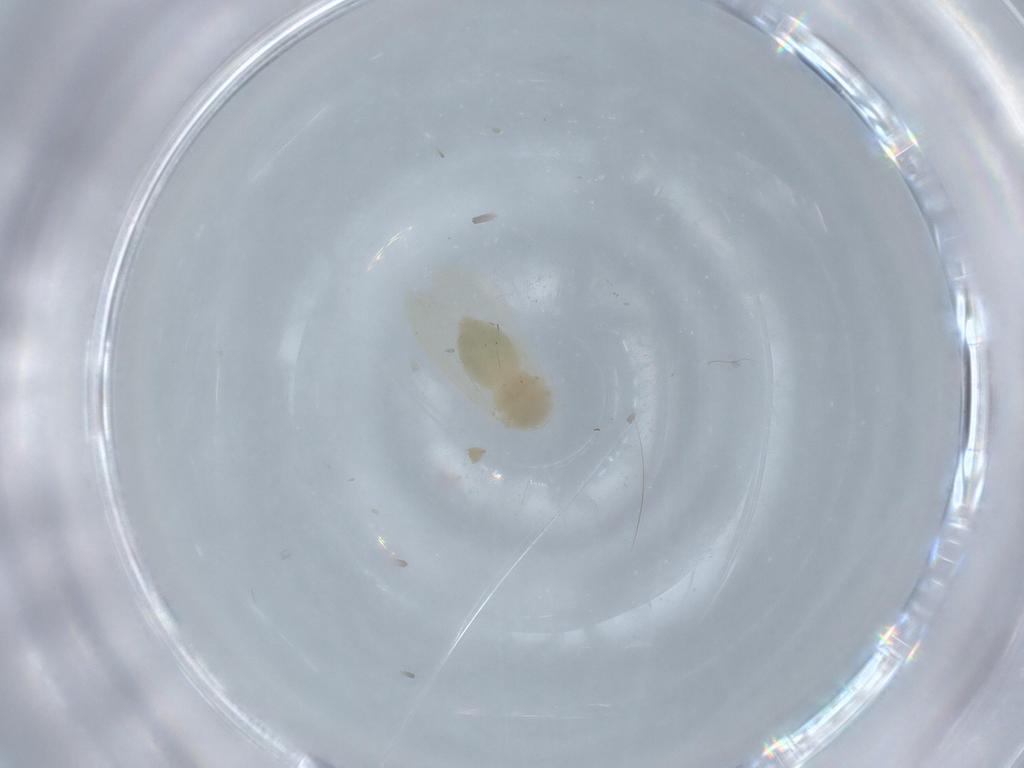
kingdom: Animalia
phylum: Arthropoda
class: Insecta
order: Hemiptera
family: Aleyrodidae
